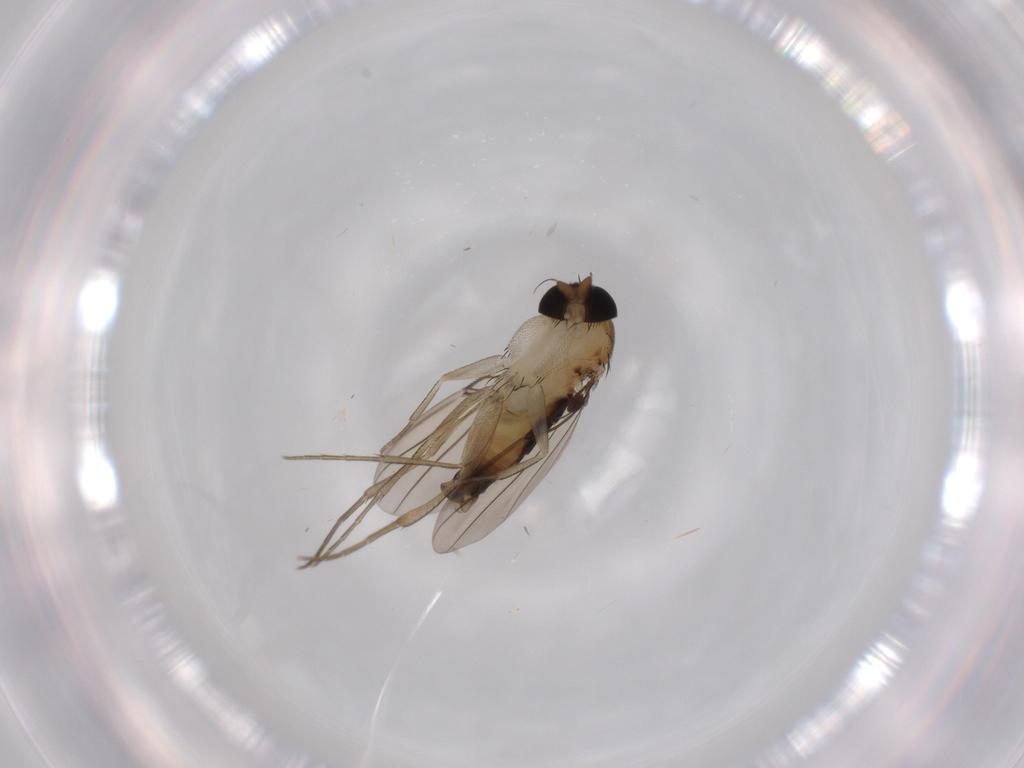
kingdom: Animalia
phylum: Arthropoda
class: Insecta
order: Diptera
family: Phoridae
